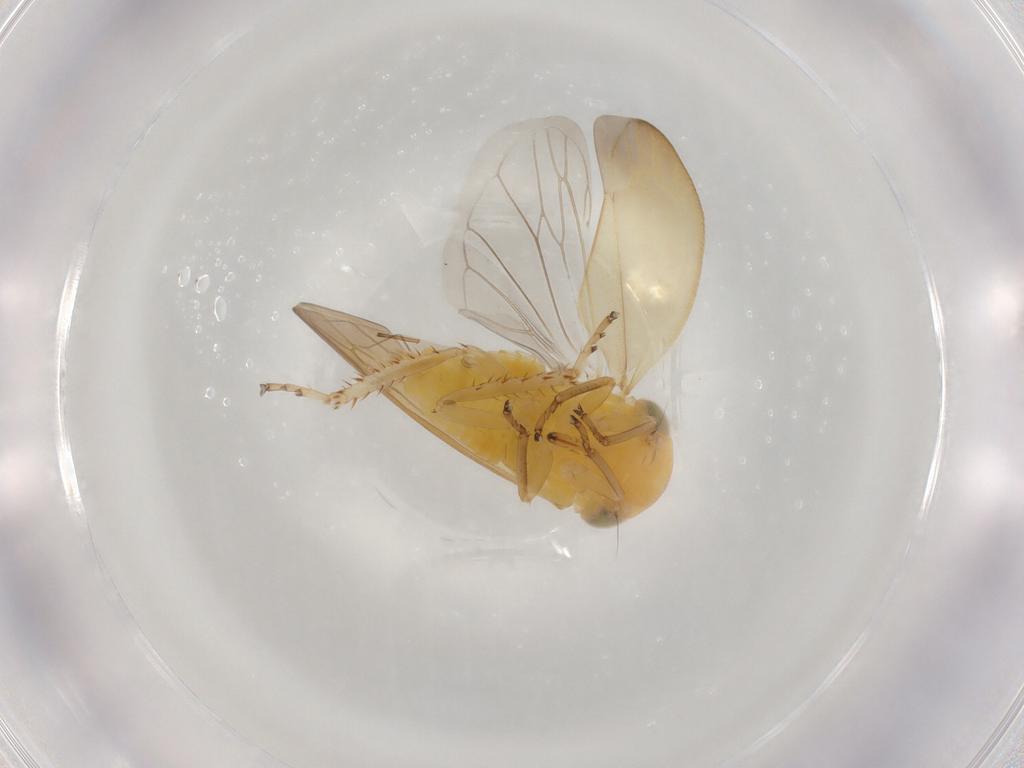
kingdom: Animalia
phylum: Arthropoda
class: Insecta
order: Hemiptera
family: Cicadellidae
